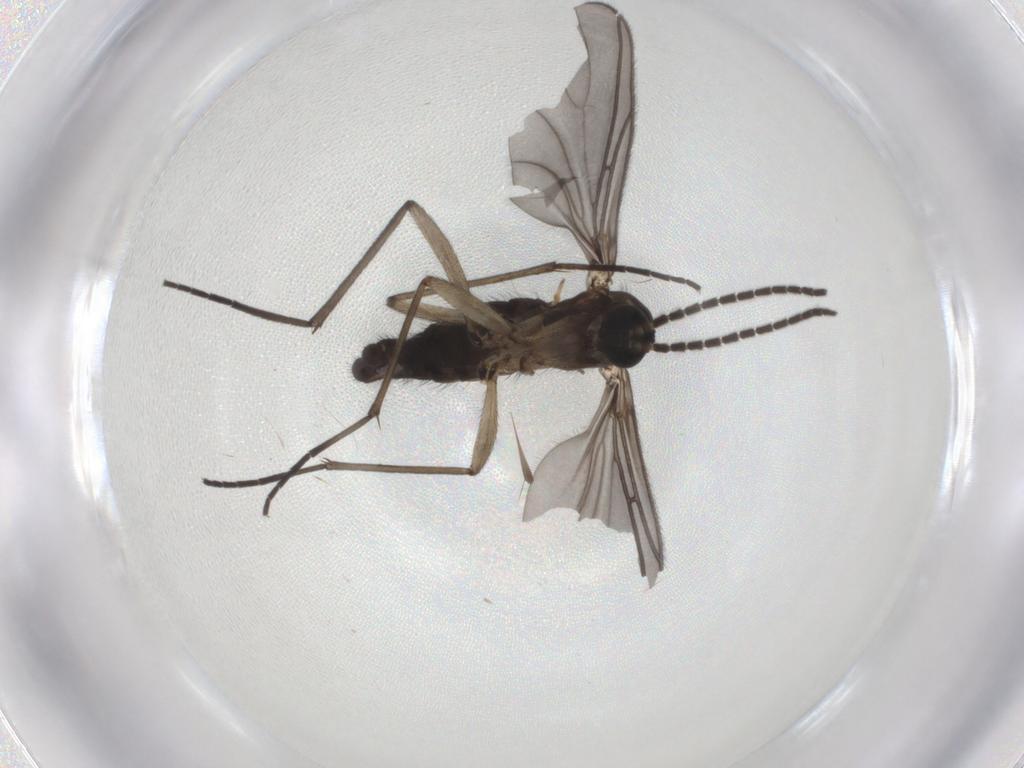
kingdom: Animalia
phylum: Arthropoda
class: Insecta
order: Diptera
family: Sciaridae
